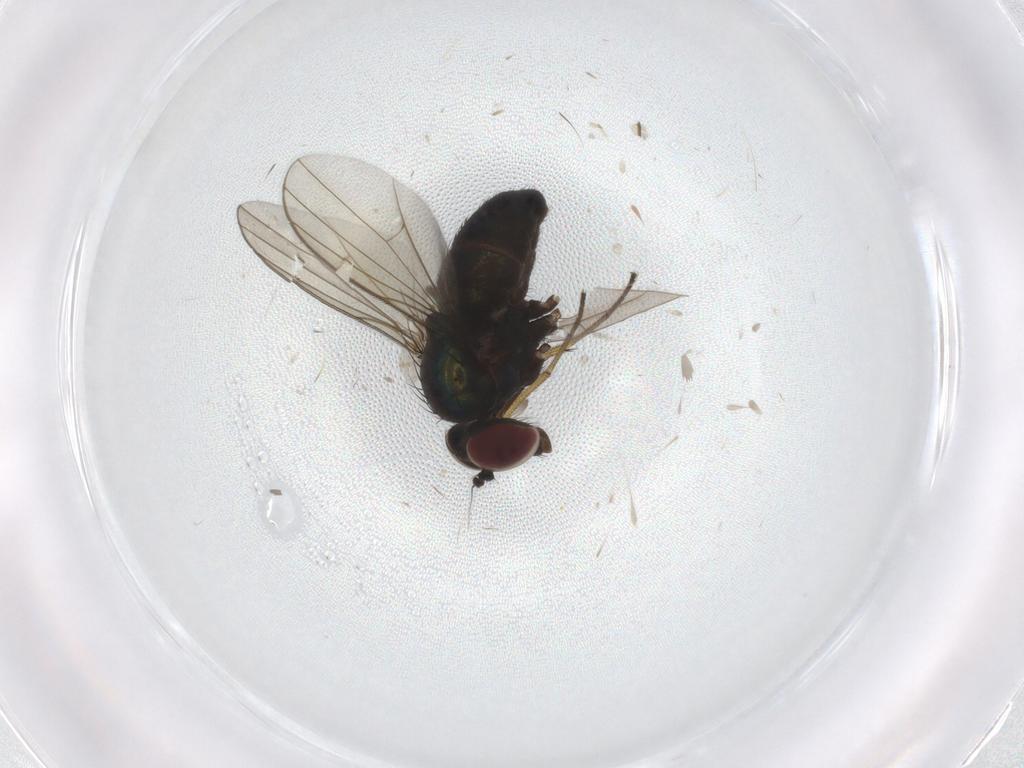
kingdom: Animalia
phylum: Arthropoda
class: Insecta
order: Diptera
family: Dolichopodidae
